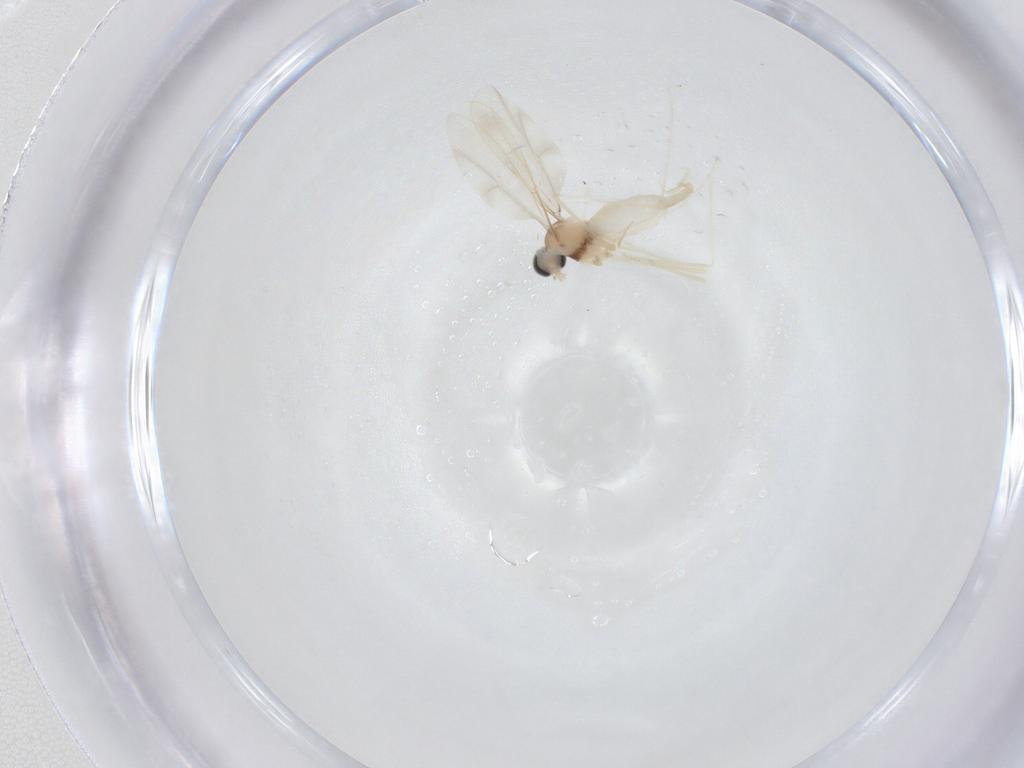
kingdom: Animalia
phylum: Arthropoda
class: Insecta
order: Diptera
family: Cecidomyiidae
